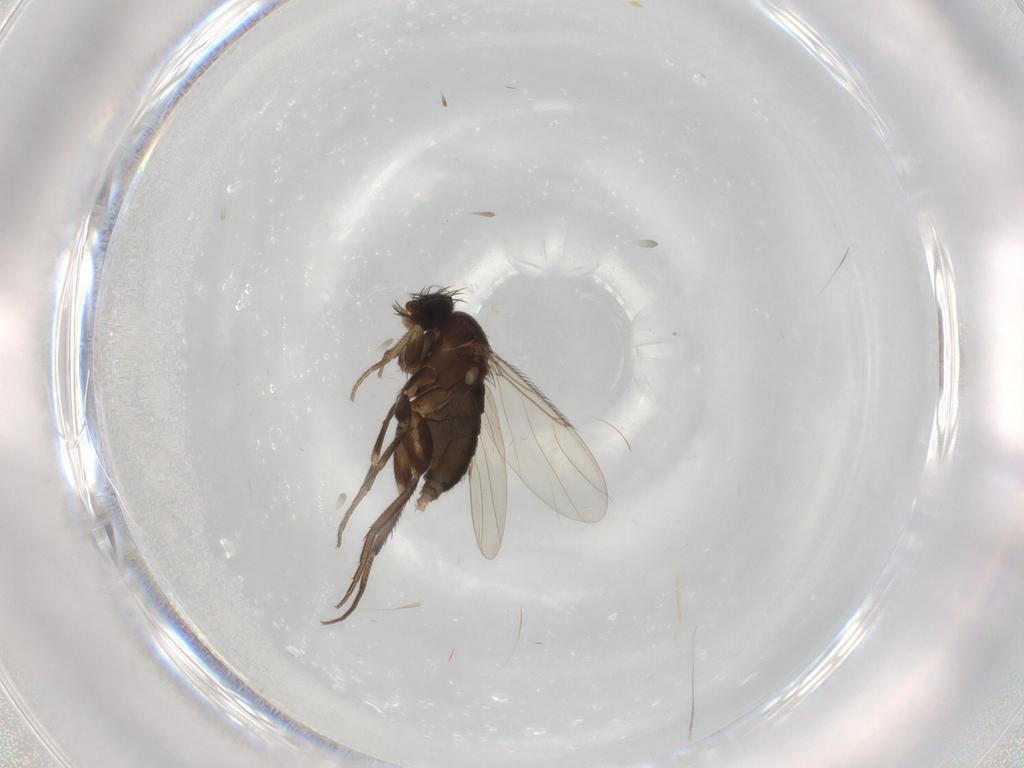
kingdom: Animalia
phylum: Arthropoda
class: Insecta
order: Diptera
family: Phoridae
